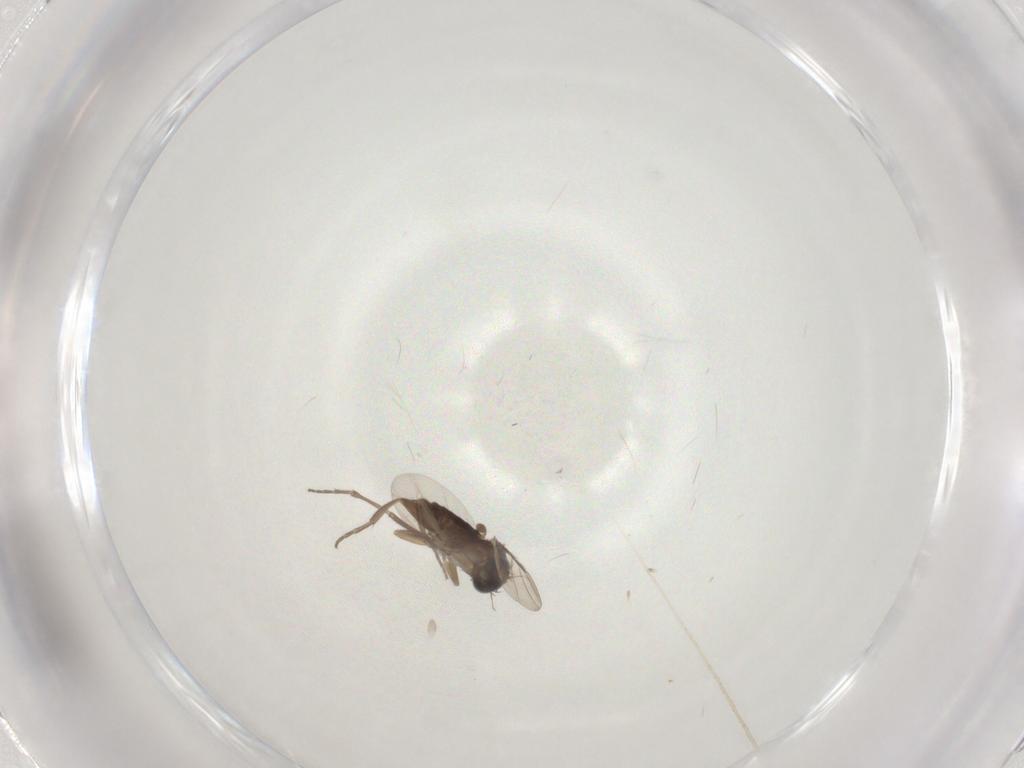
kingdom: Animalia
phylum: Arthropoda
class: Insecta
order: Diptera
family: Chironomidae
